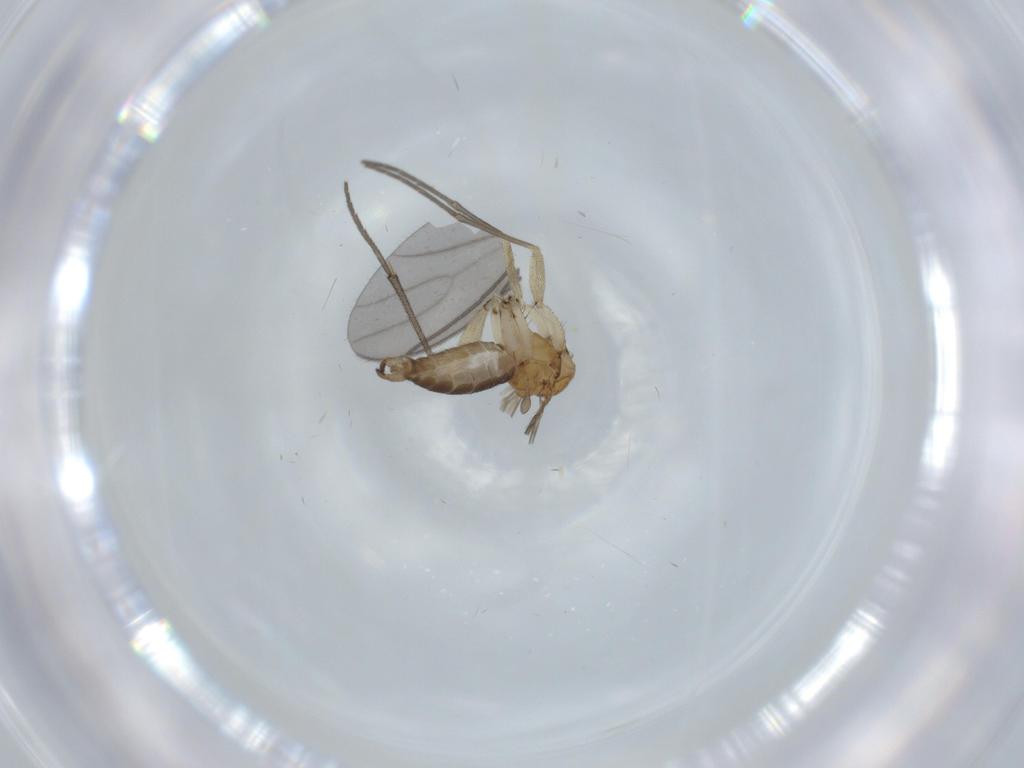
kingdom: Animalia
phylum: Arthropoda
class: Insecta
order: Diptera
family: Sciaridae
